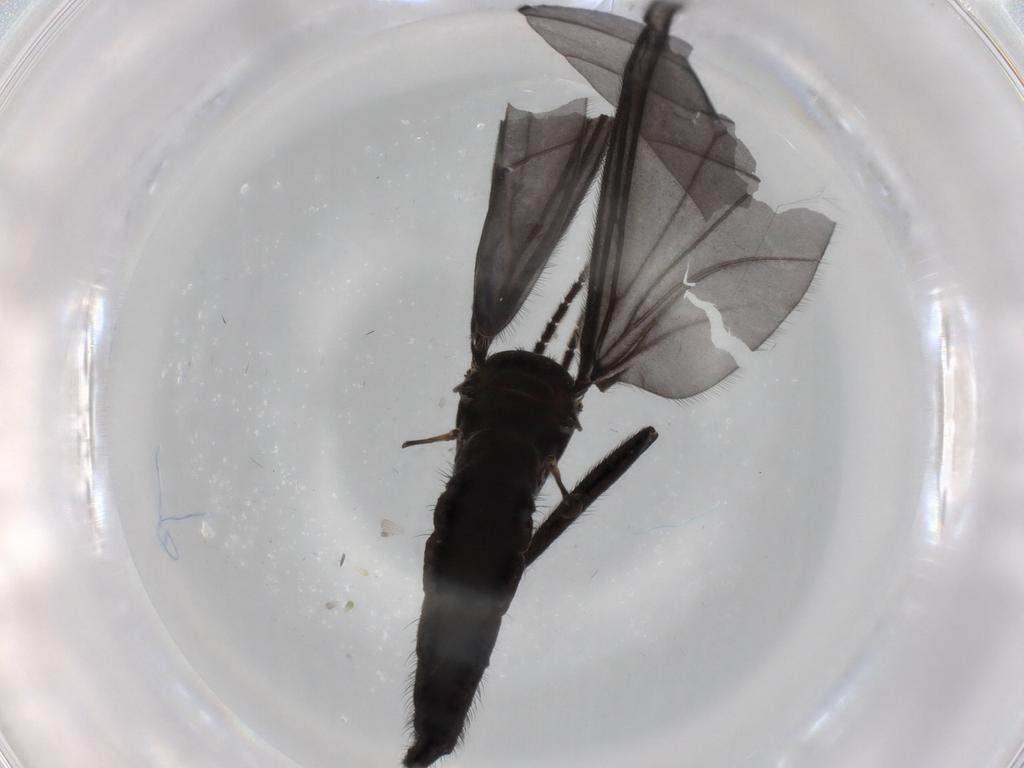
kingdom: Animalia
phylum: Arthropoda
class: Insecta
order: Diptera
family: Sciaridae
